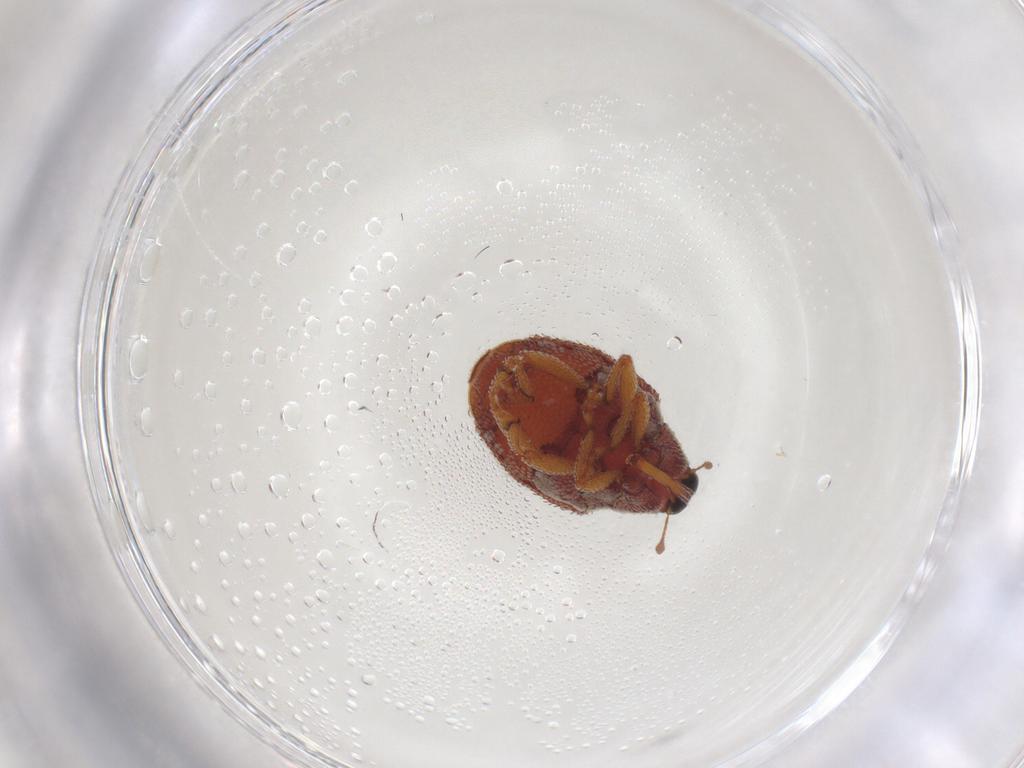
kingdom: Animalia
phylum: Arthropoda
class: Insecta
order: Coleoptera
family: Curculionidae
